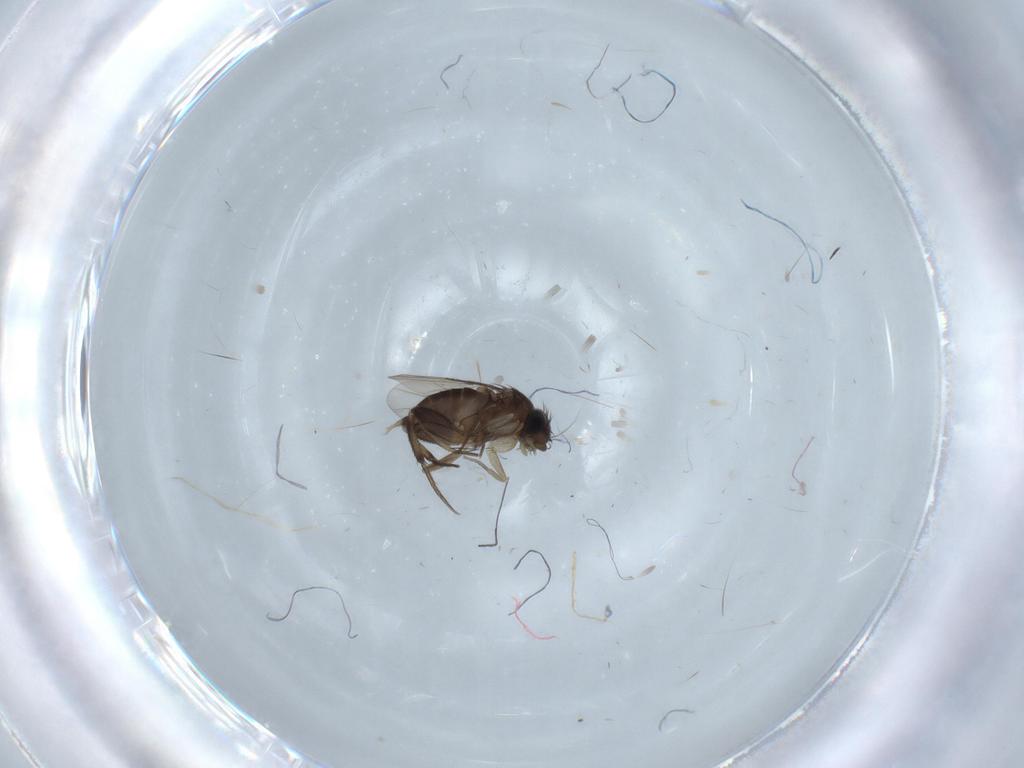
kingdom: Animalia
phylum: Arthropoda
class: Insecta
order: Diptera
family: Phoridae
